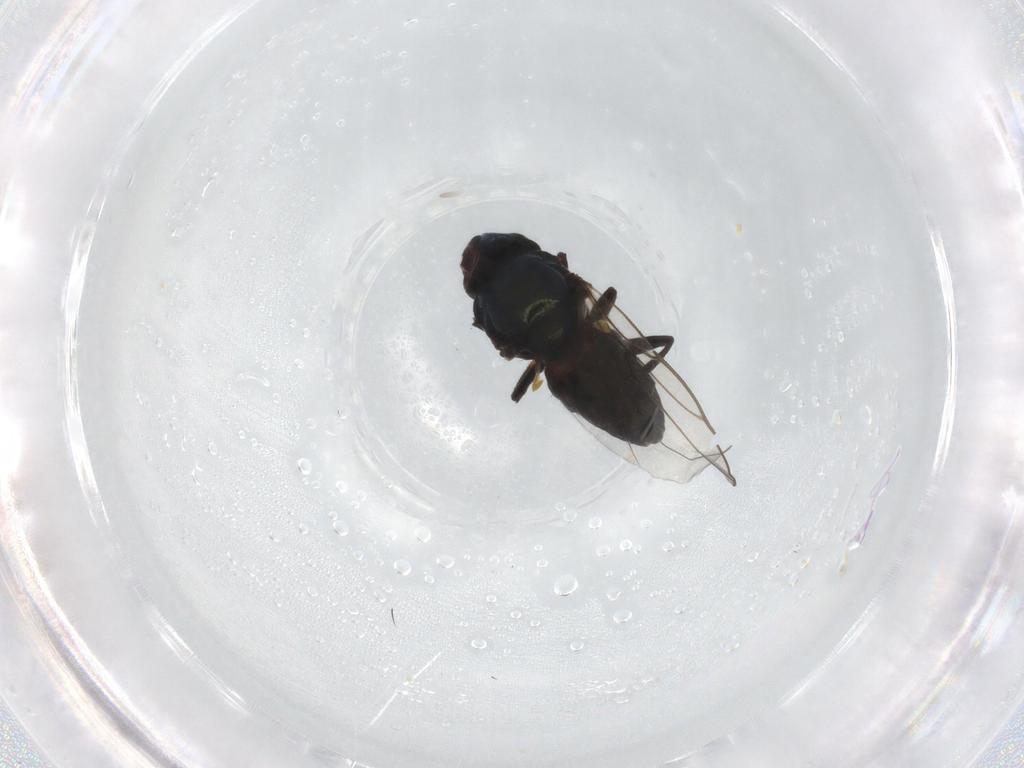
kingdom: Animalia
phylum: Arthropoda
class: Insecta
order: Diptera
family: Chloropidae
